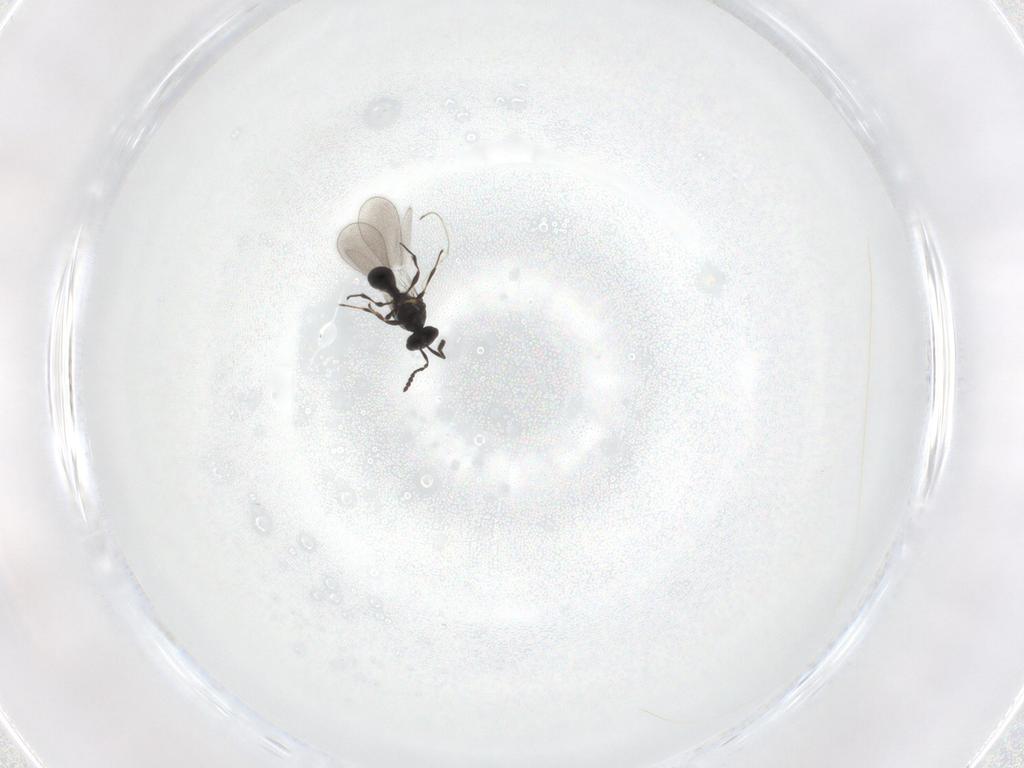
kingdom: Animalia
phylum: Arthropoda
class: Insecta
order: Hymenoptera
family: Platygastridae
